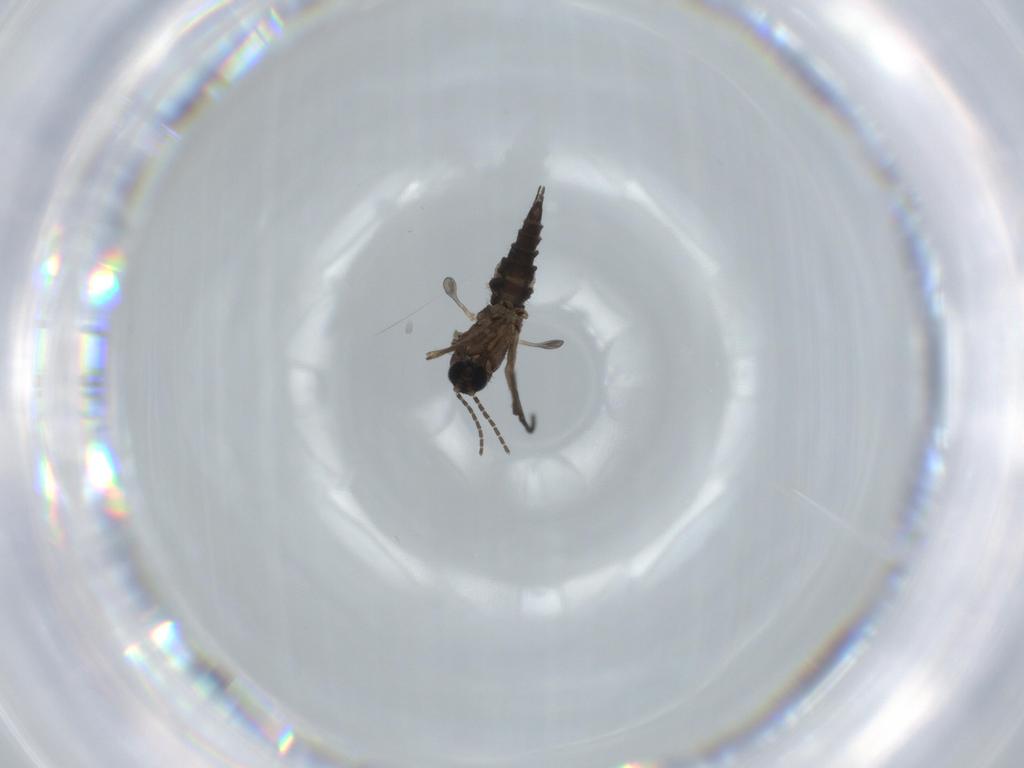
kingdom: Animalia
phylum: Arthropoda
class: Insecta
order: Diptera
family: Sciaridae
